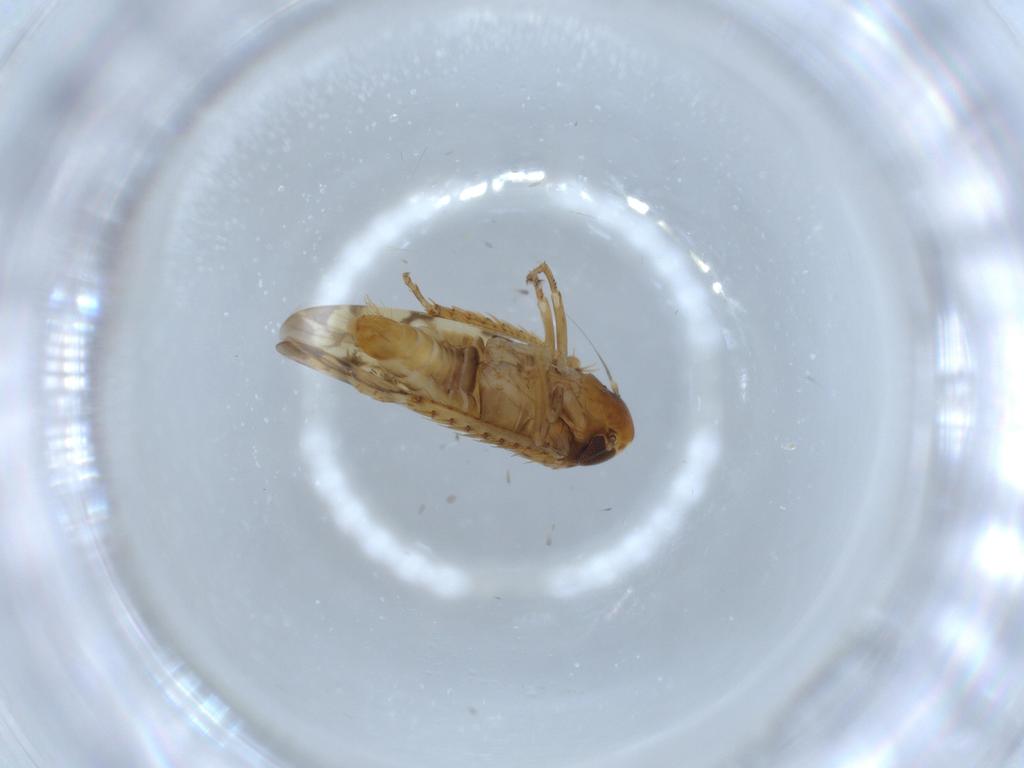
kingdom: Animalia
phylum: Arthropoda
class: Insecta
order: Hemiptera
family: Cicadellidae
